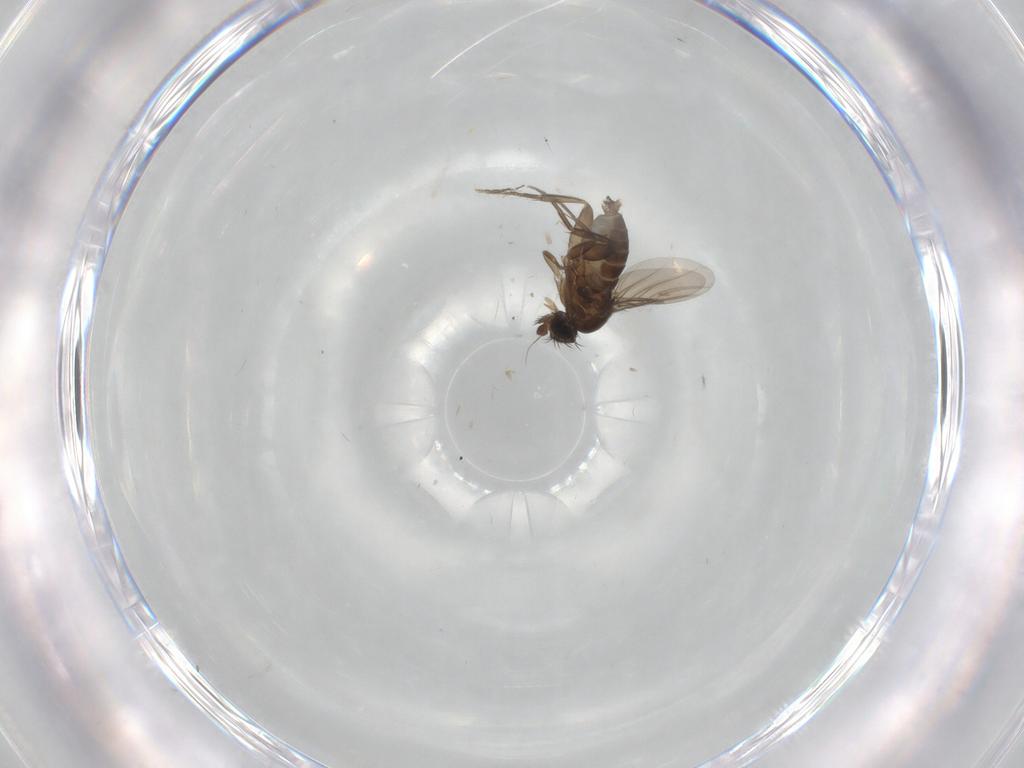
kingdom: Animalia
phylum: Arthropoda
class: Insecta
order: Diptera
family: Phoridae
